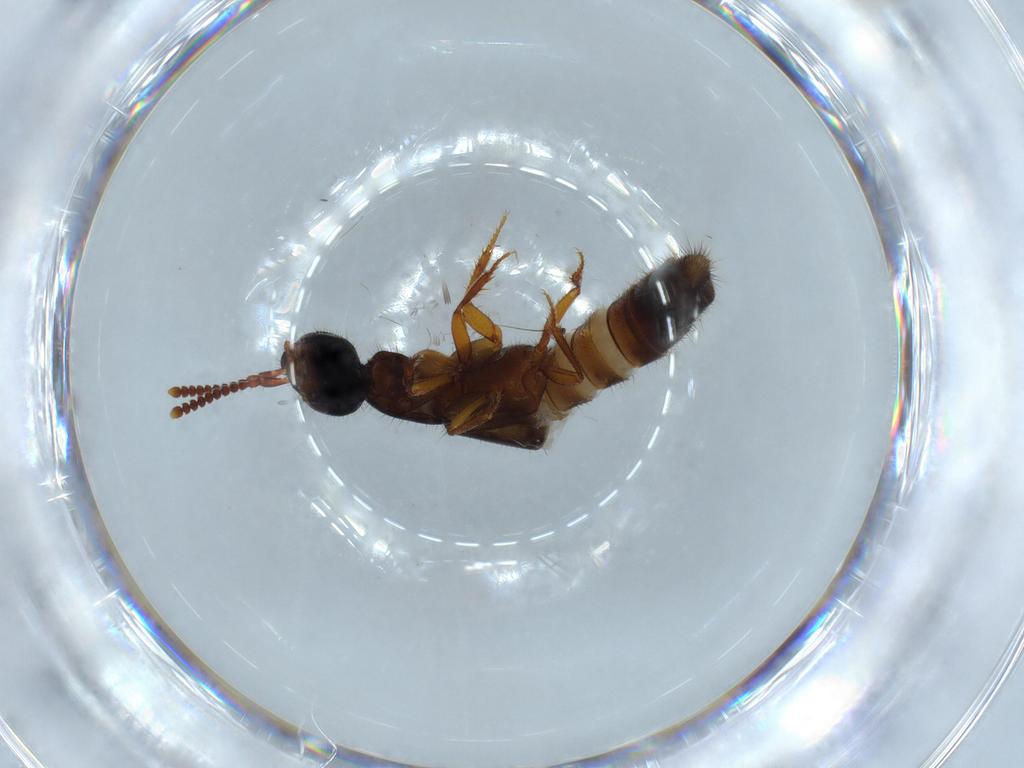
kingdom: Animalia
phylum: Arthropoda
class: Insecta
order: Coleoptera
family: Staphylinidae
